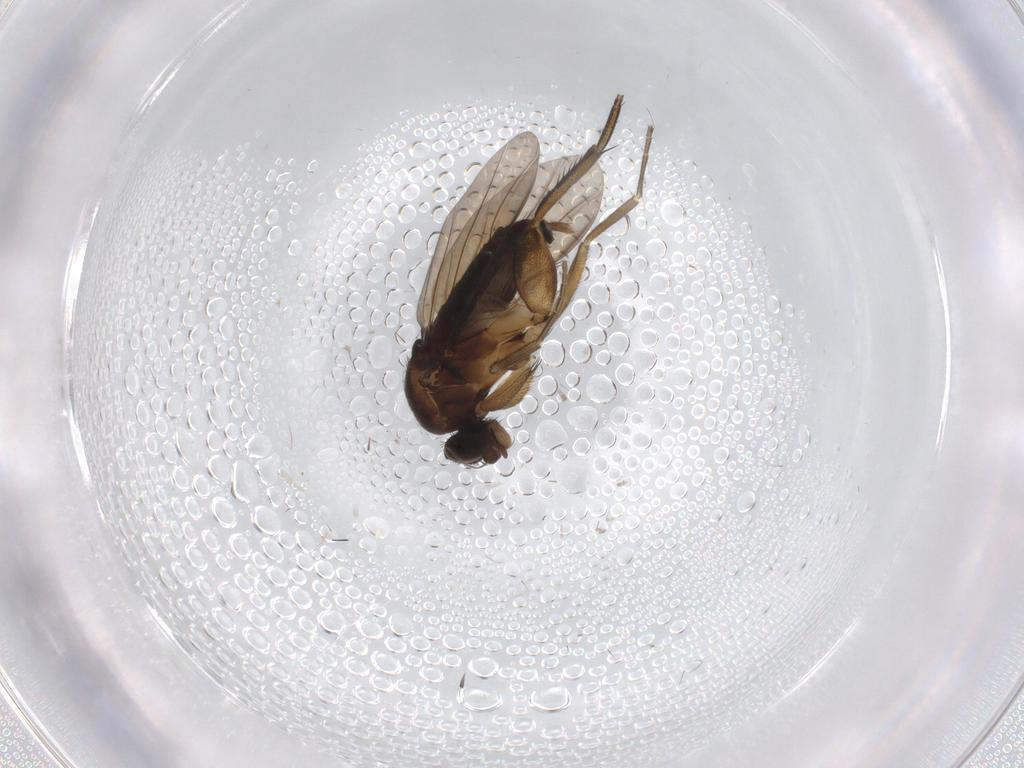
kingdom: Animalia
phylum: Arthropoda
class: Insecta
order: Diptera
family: Phoridae
